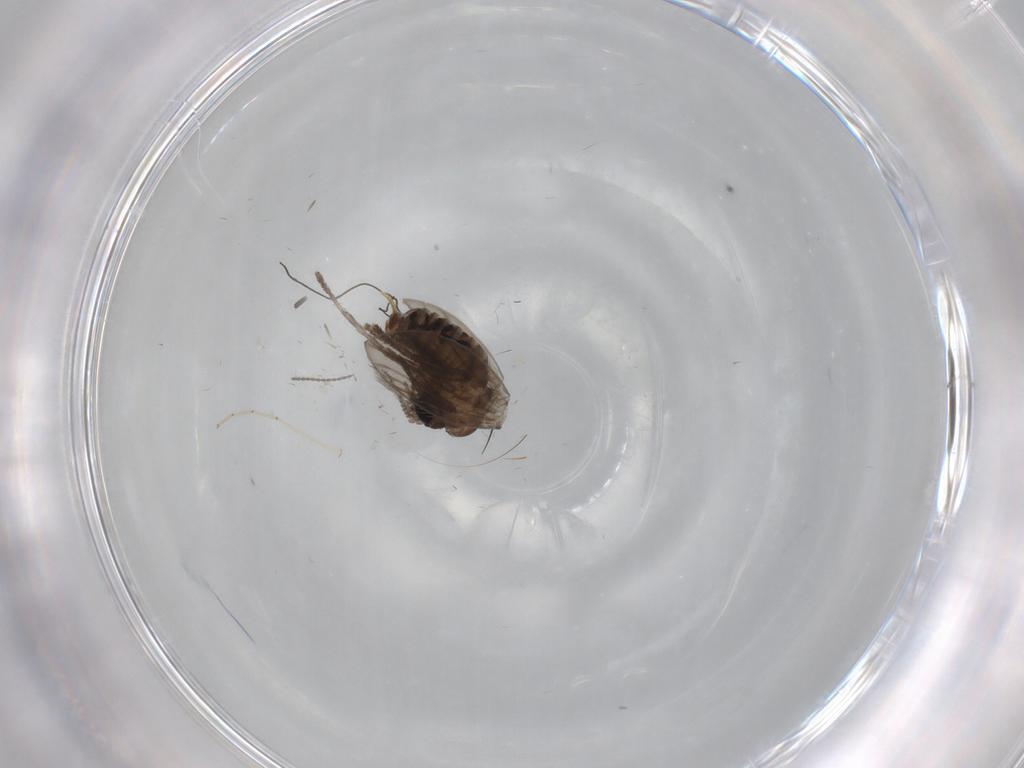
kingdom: Animalia
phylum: Arthropoda
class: Insecta
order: Diptera
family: Psychodidae
